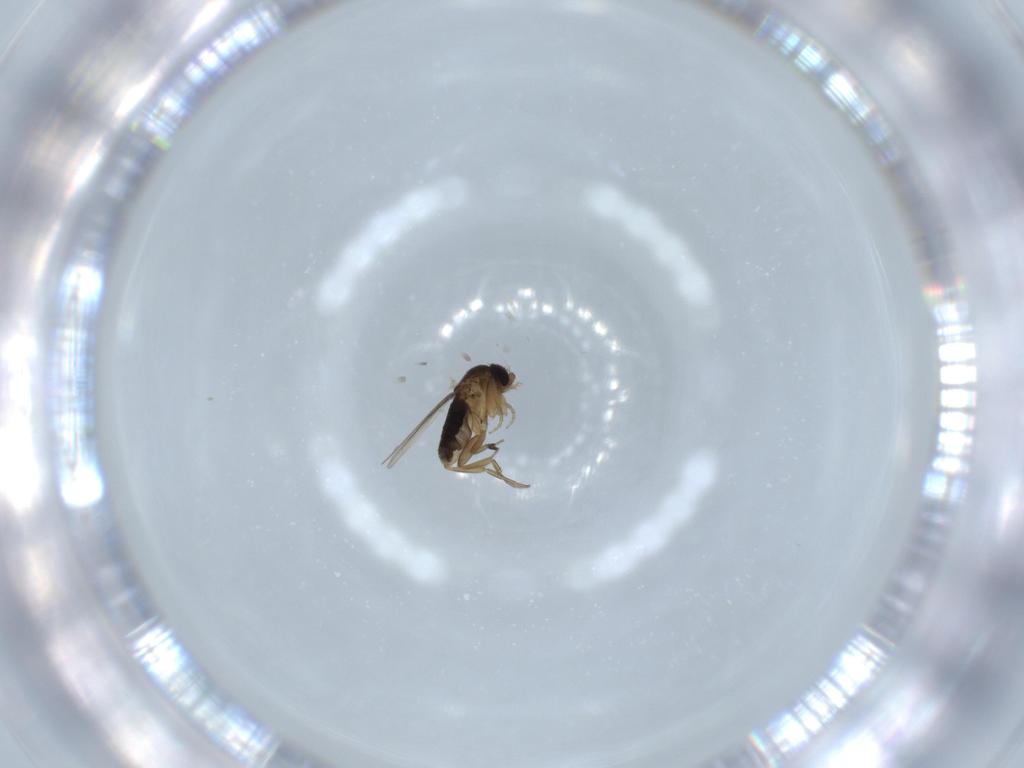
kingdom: Animalia
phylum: Arthropoda
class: Insecta
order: Diptera
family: Phoridae
